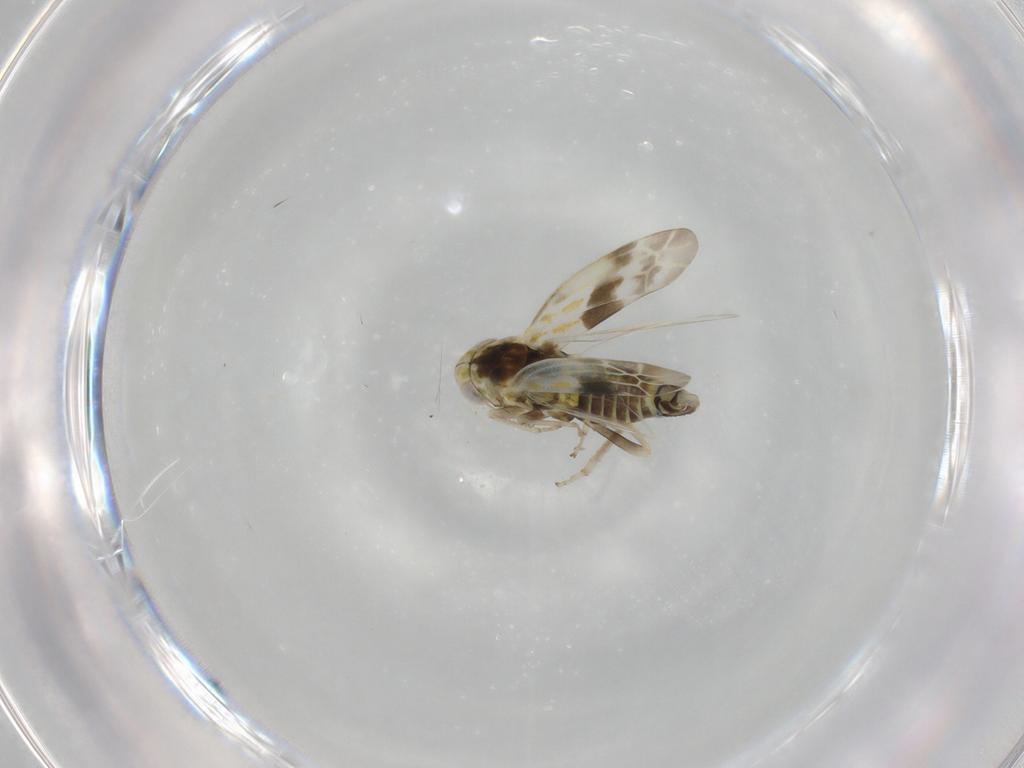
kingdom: Animalia
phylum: Arthropoda
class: Insecta
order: Hemiptera
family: Cicadellidae
